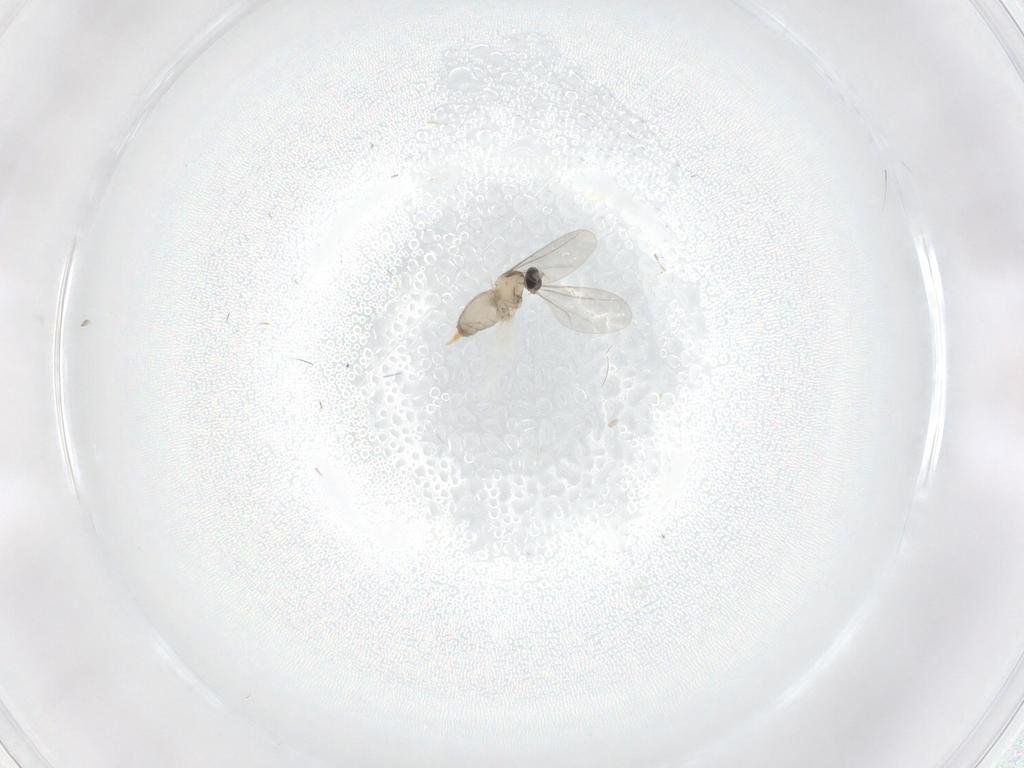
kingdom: Animalia
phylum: Arthropoda
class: Insecta
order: Diptera
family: Cecidomyiidae
